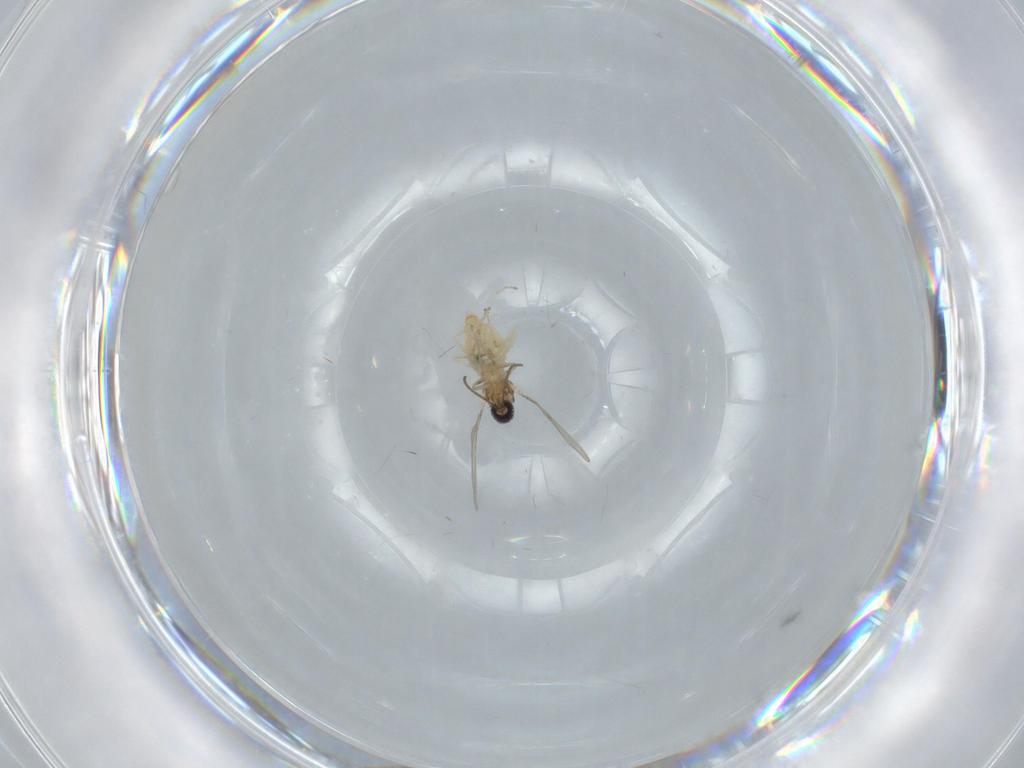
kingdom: Animalia
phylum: Arthropoda
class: Insecta
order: Diptera
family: Cecidomyiidae
